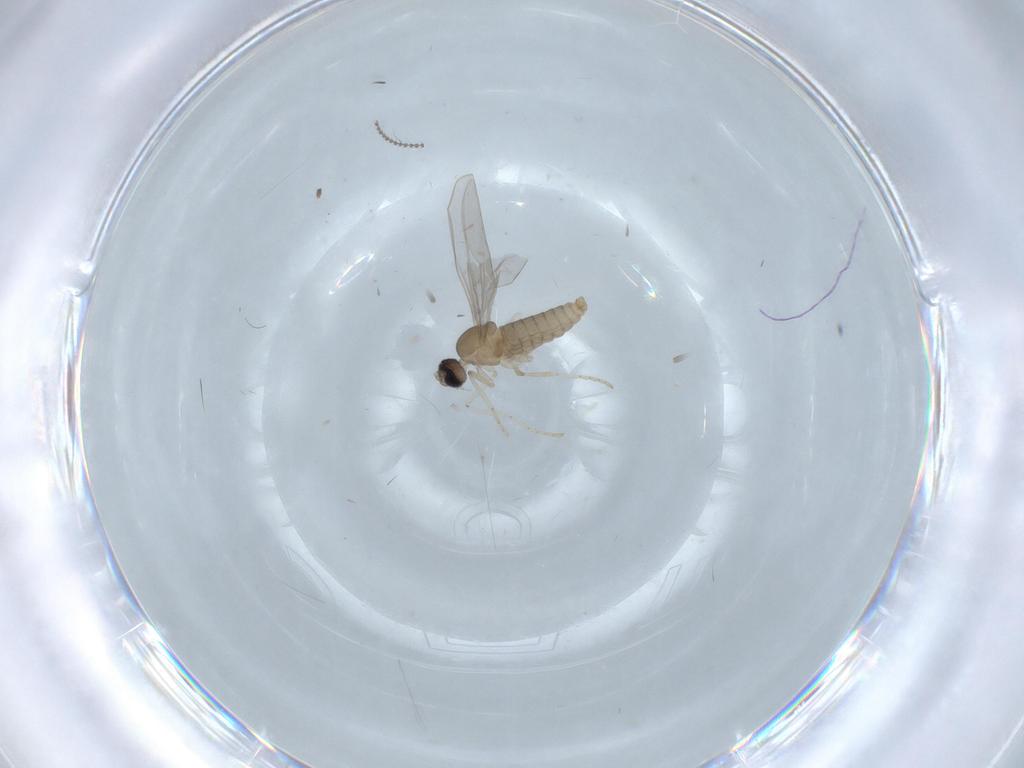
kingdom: Animalia
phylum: Arthropoda
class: Insecta
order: Diptera
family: Cecidomyiidae
